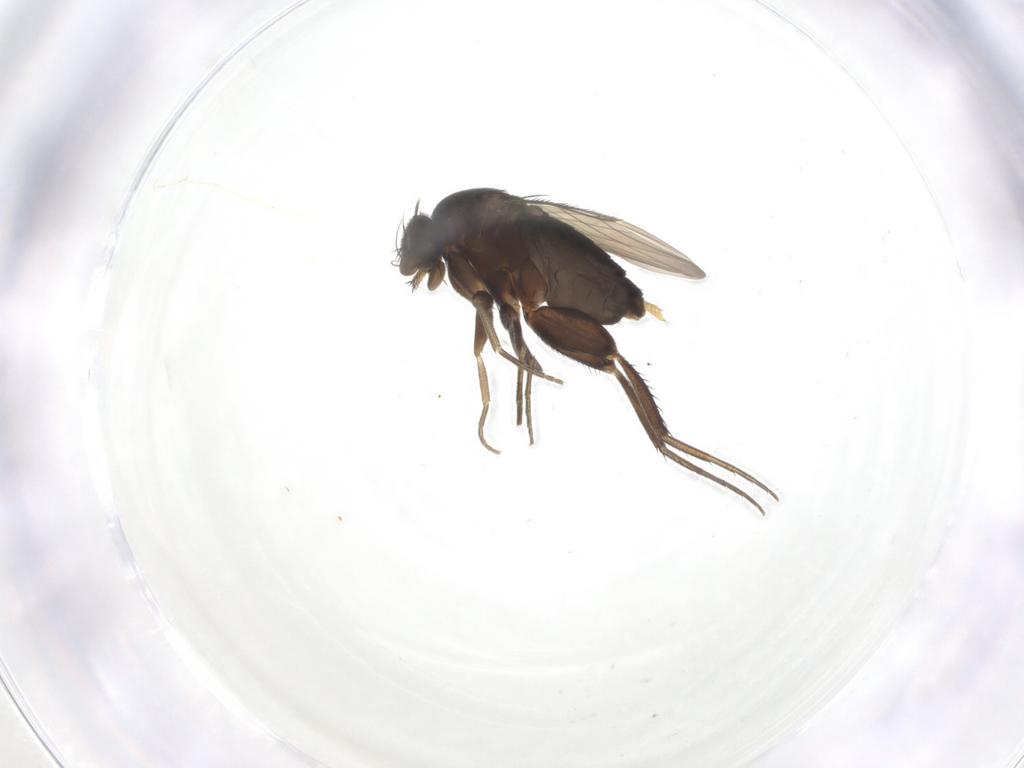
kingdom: Animalia
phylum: Arthropoda
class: Insecta
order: Diptera
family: Phoridae
